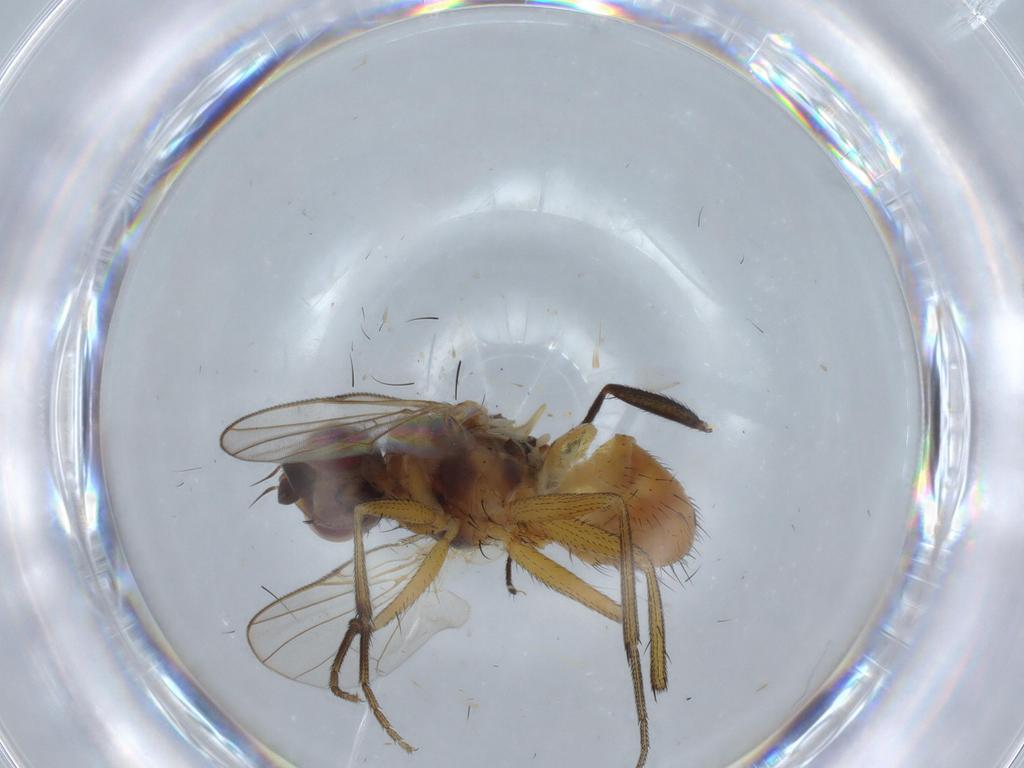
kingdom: Animalia
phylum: Arthropoda
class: Insecta
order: Diptera
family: Dolichopodidae
